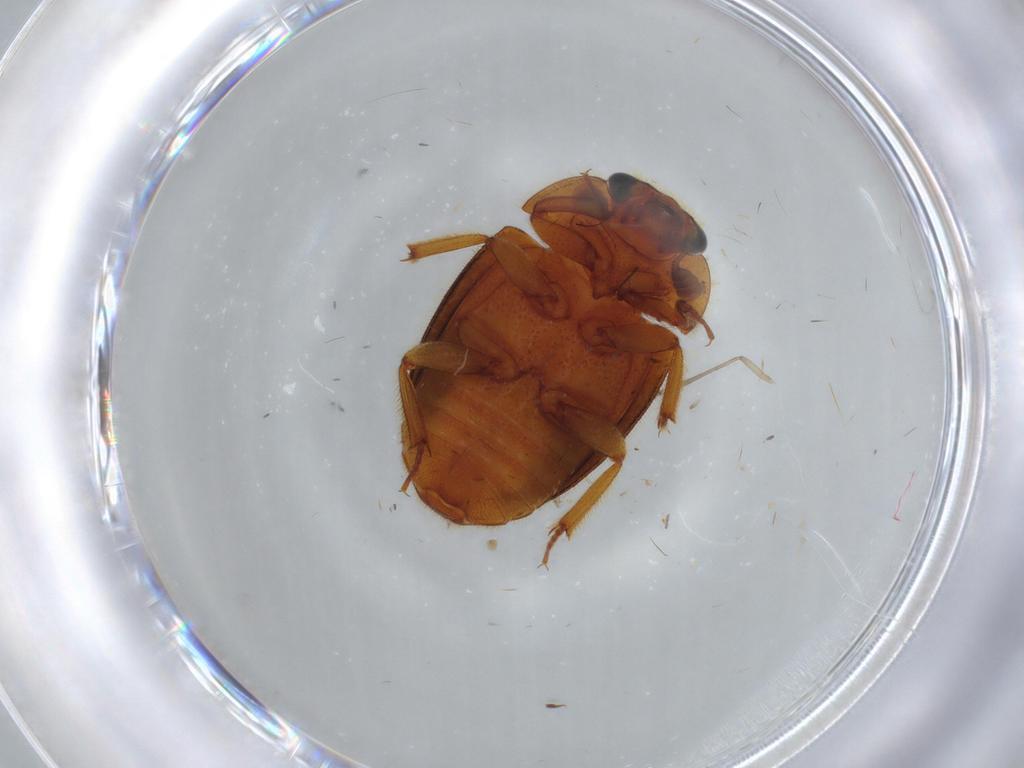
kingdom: Animalia
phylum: Arthropoda
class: Insecta
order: Coleoptera
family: Nitidulidae
